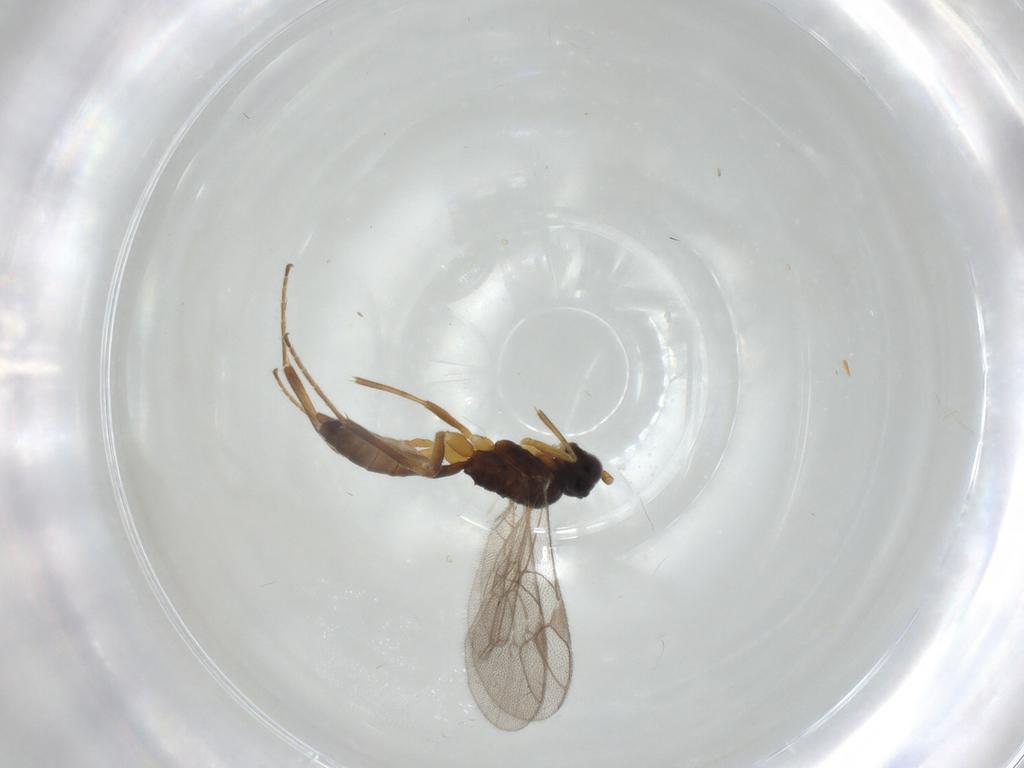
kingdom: Animalia
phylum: Arthropoda
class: Insecta
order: Hymenoptera
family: Ichneumonidae
